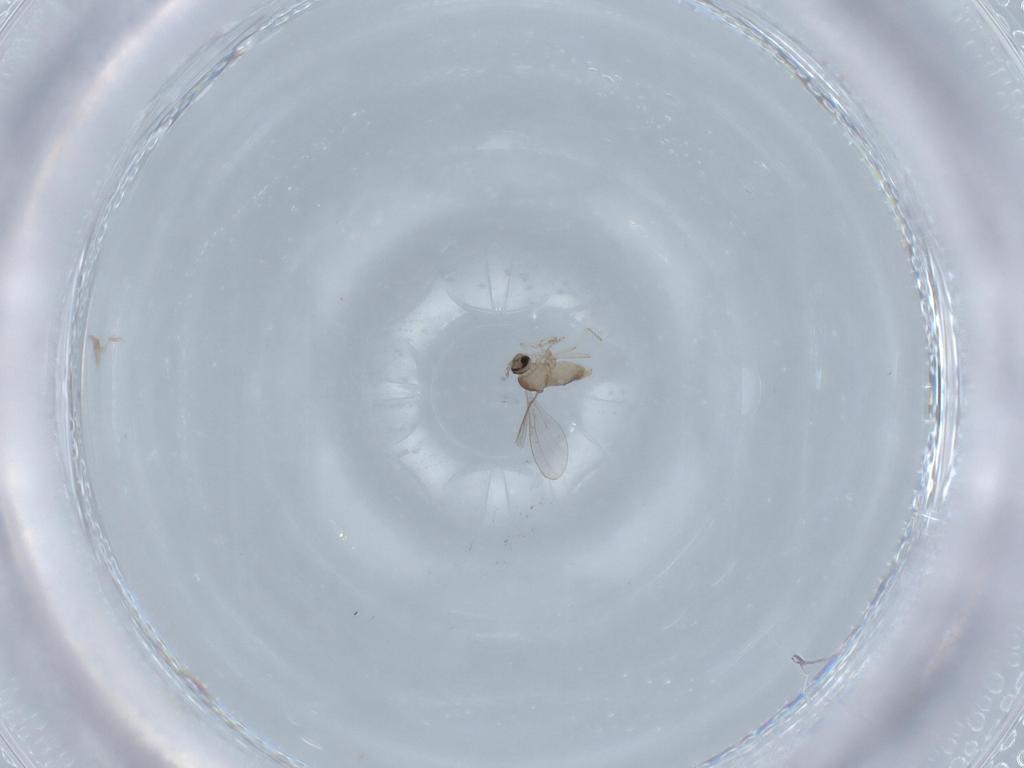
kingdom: Animalia
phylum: Arthropoda
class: Insecta
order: Diptera
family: Cecidomyiidae
